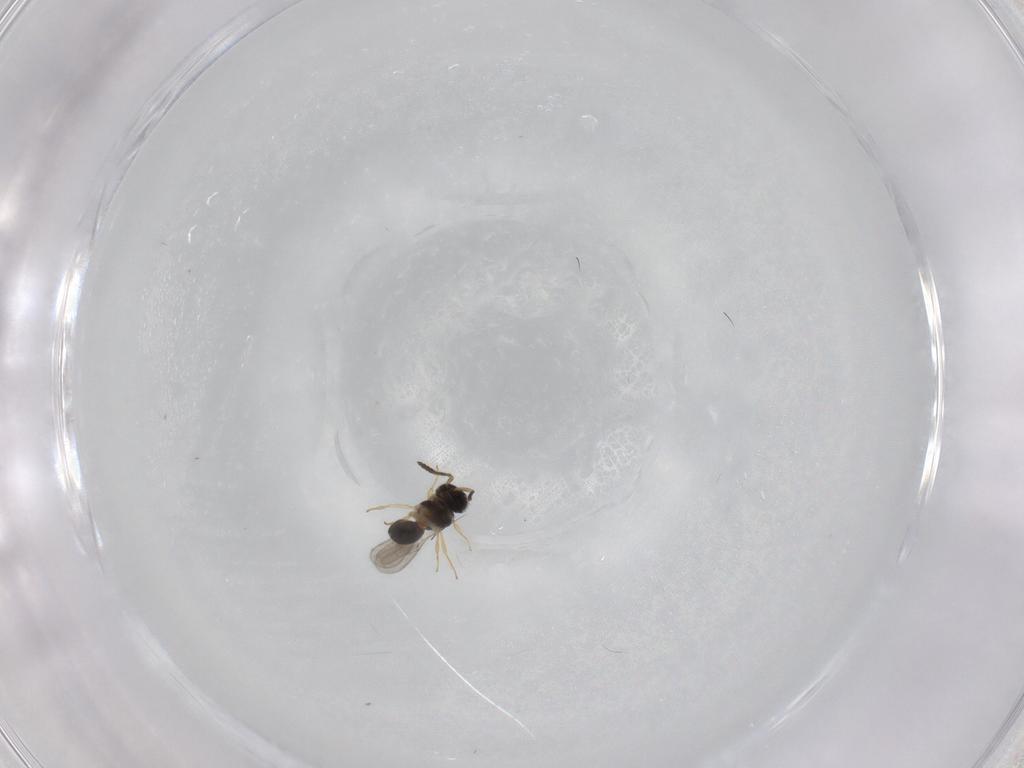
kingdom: Animalia
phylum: Arthropoda
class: Insecta
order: Hymenoptera
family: Scelionidae
